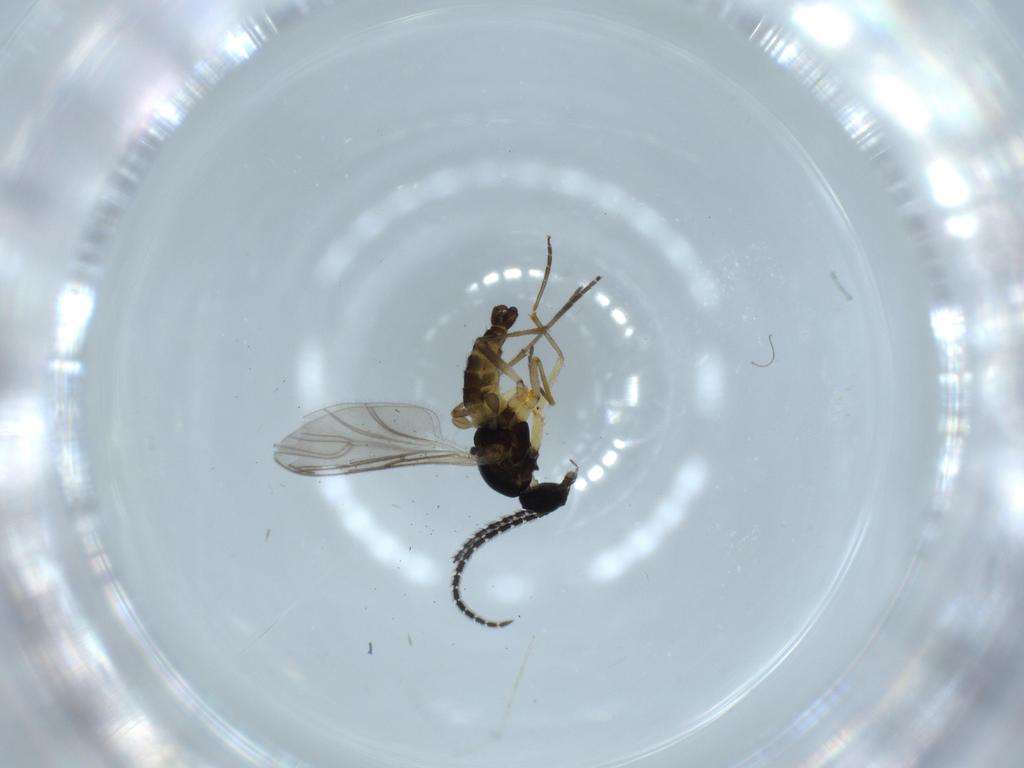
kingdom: Animalia
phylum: Arthropoda
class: Insecta
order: Diptera
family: Sciaridae
